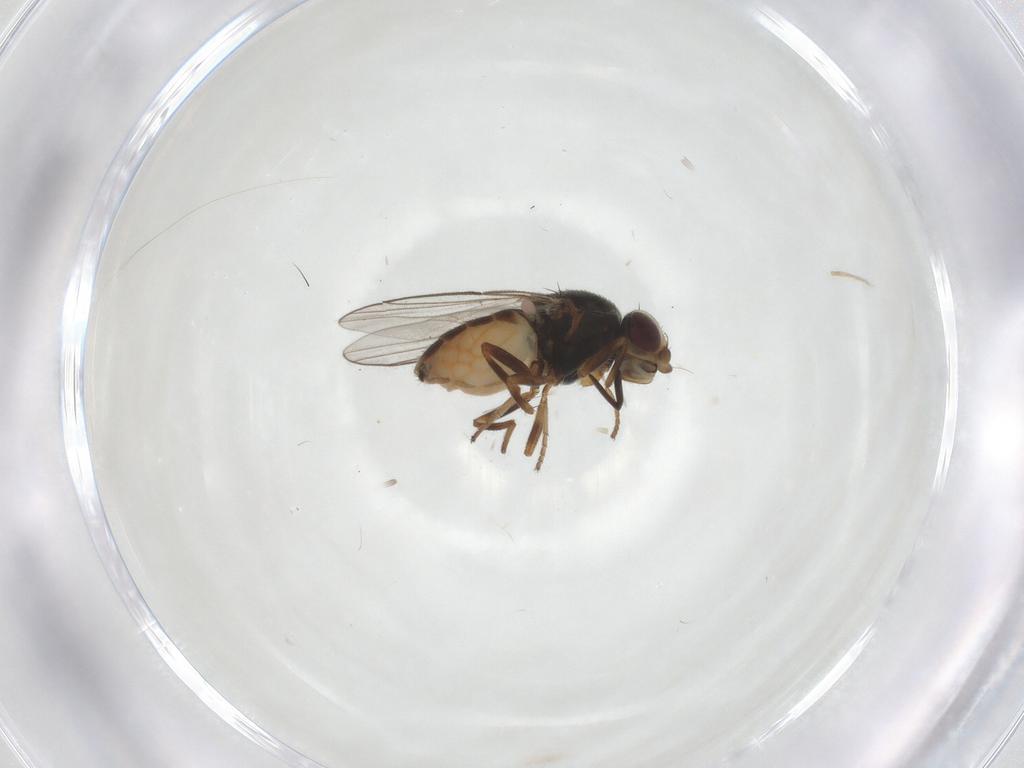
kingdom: Animalia
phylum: Arthropoda
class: Insecta
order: Diptera
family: Chloropidae
